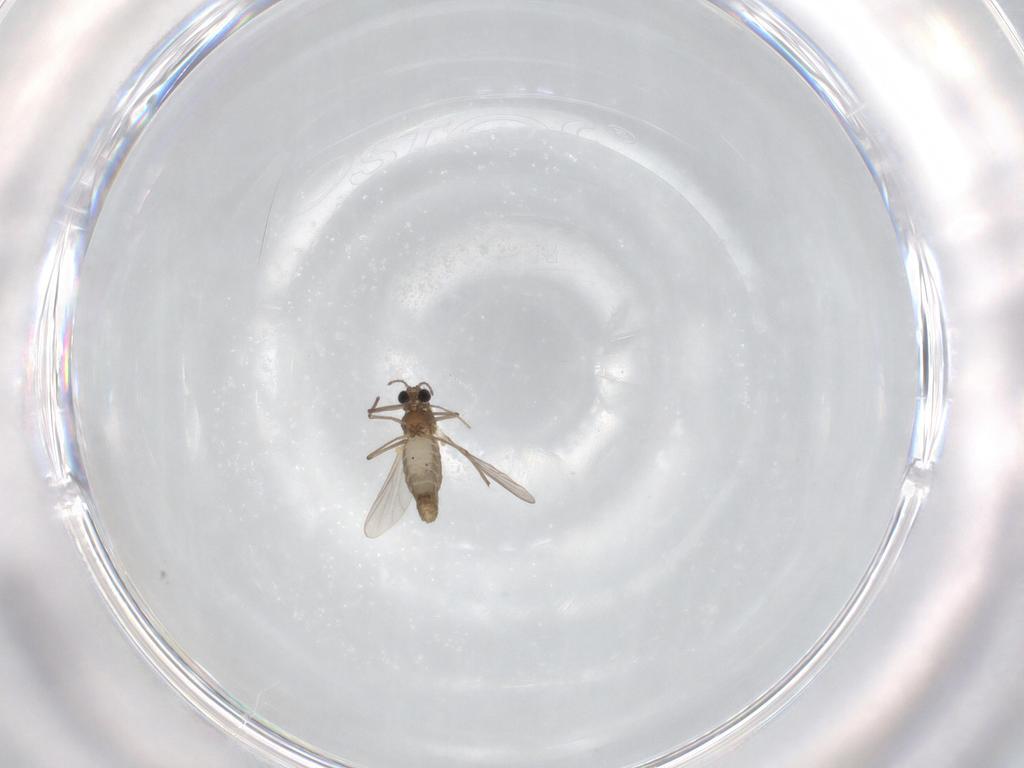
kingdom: Animalia
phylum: Arthropoda
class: Insecta
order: Diptera
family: Chironomidae
